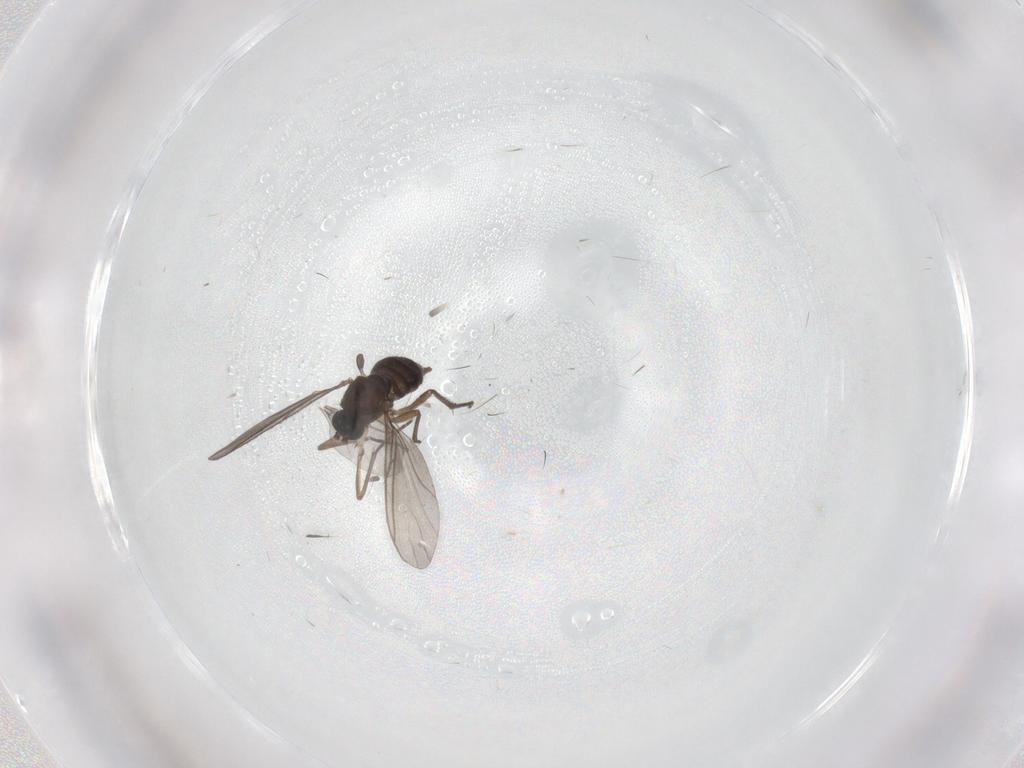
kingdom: Animalia
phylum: Arthropoda
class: Insecta
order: Diptera
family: Sciaridae
